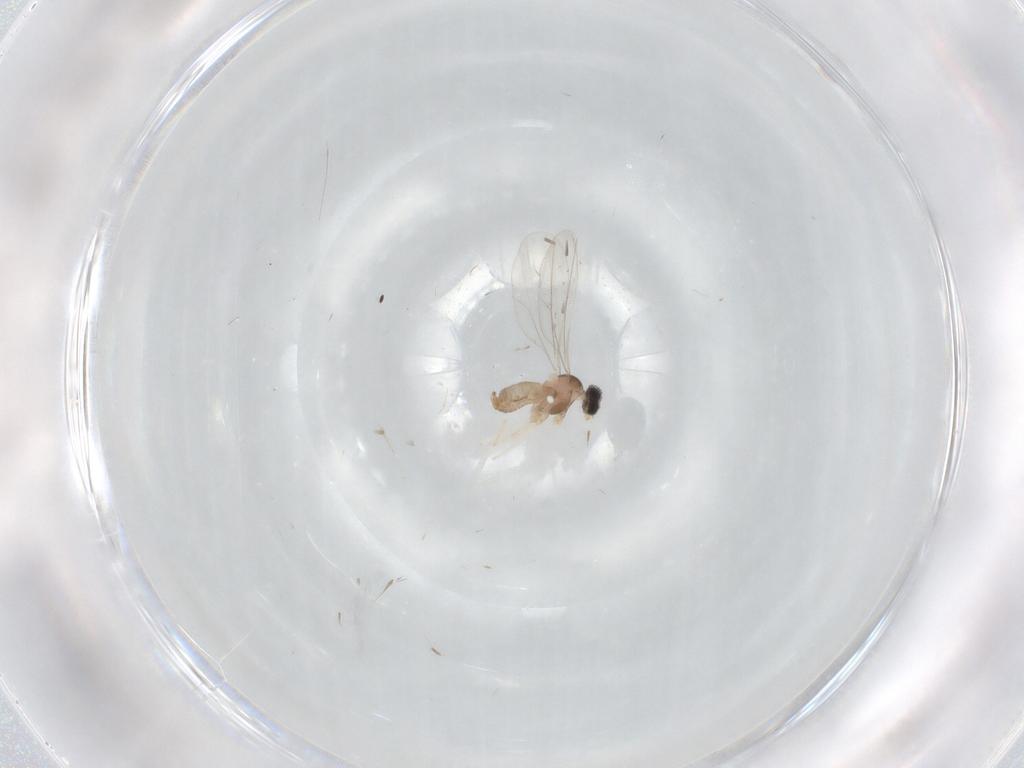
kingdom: Animalia
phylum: Arthropoda
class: Insecta
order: Diptera
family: Cecidomyiidae
